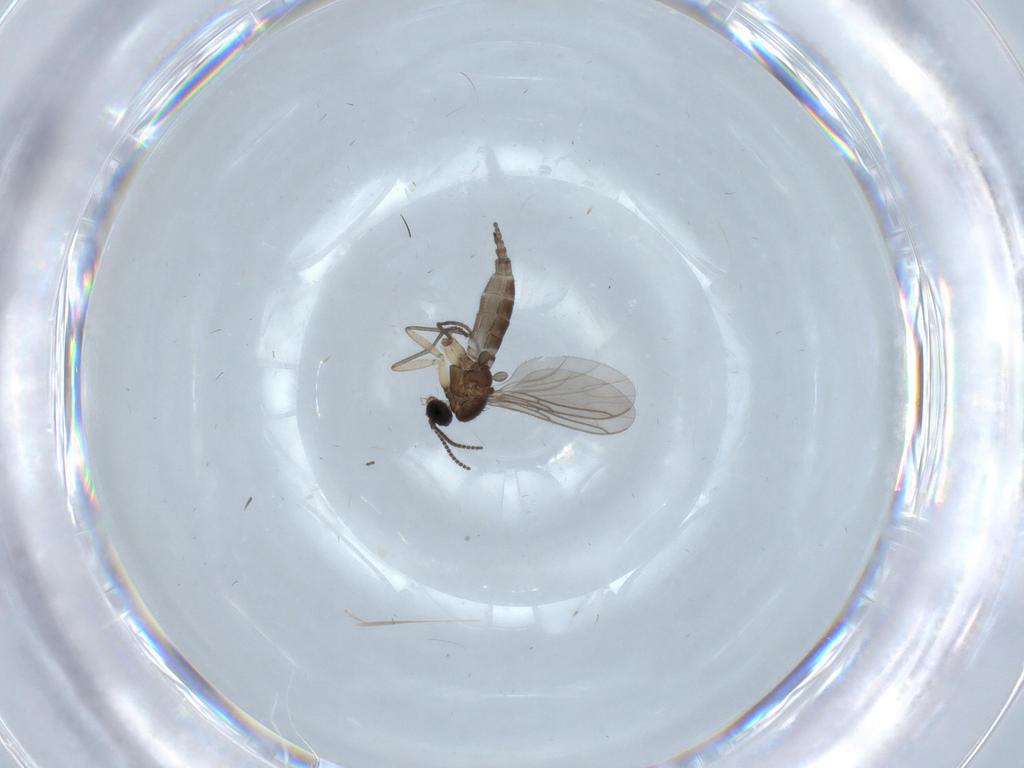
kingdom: Animalia
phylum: Arthropoda
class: Insecta
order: Diptera
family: Sciaridae
